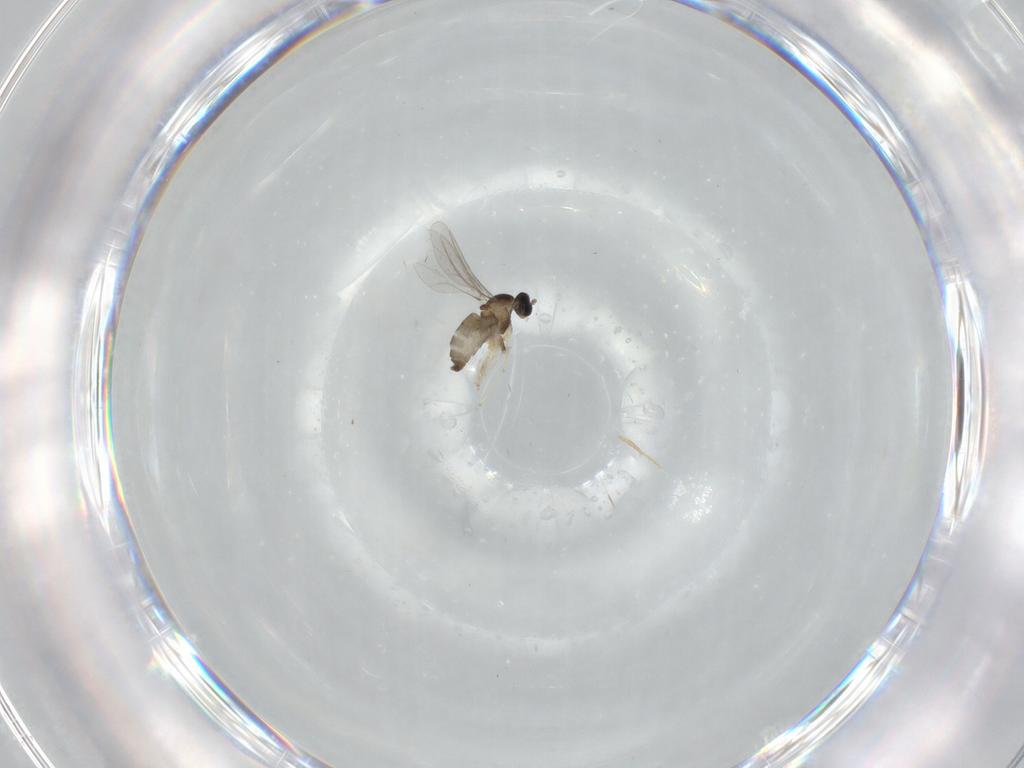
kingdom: Animalia
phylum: Arthropoda
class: Insecta
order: Diptera
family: Cecidomyiidae
